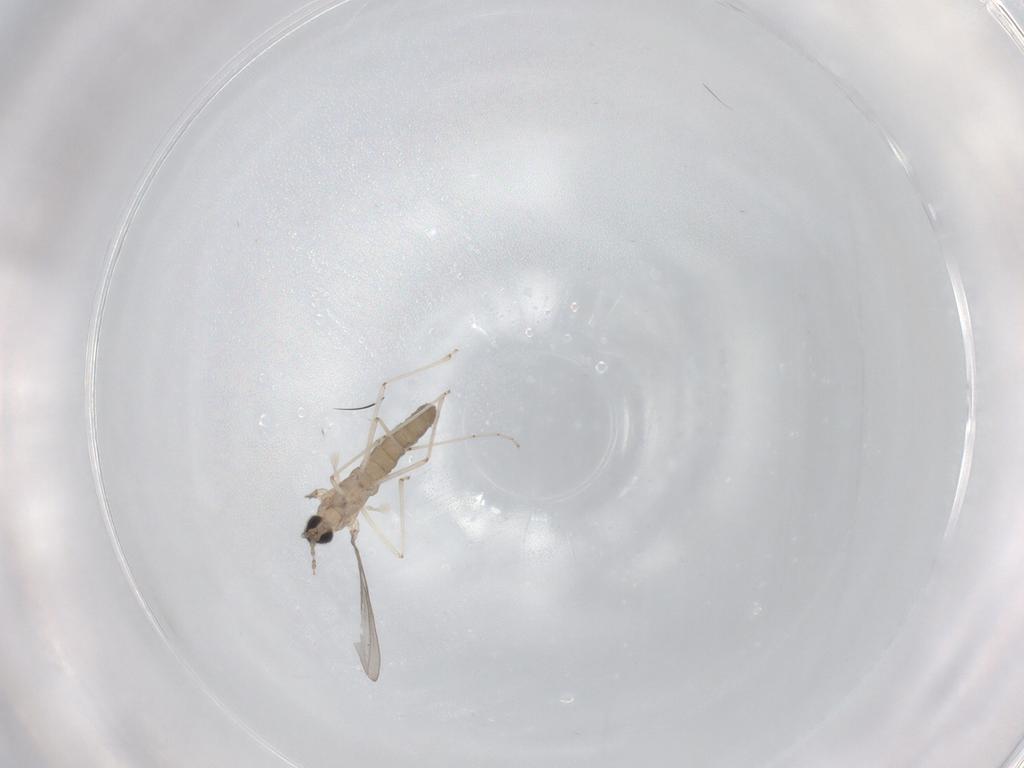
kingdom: Animalia
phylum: Arthropoda
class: Insecta
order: Diptera
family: Cecidomyiidae
